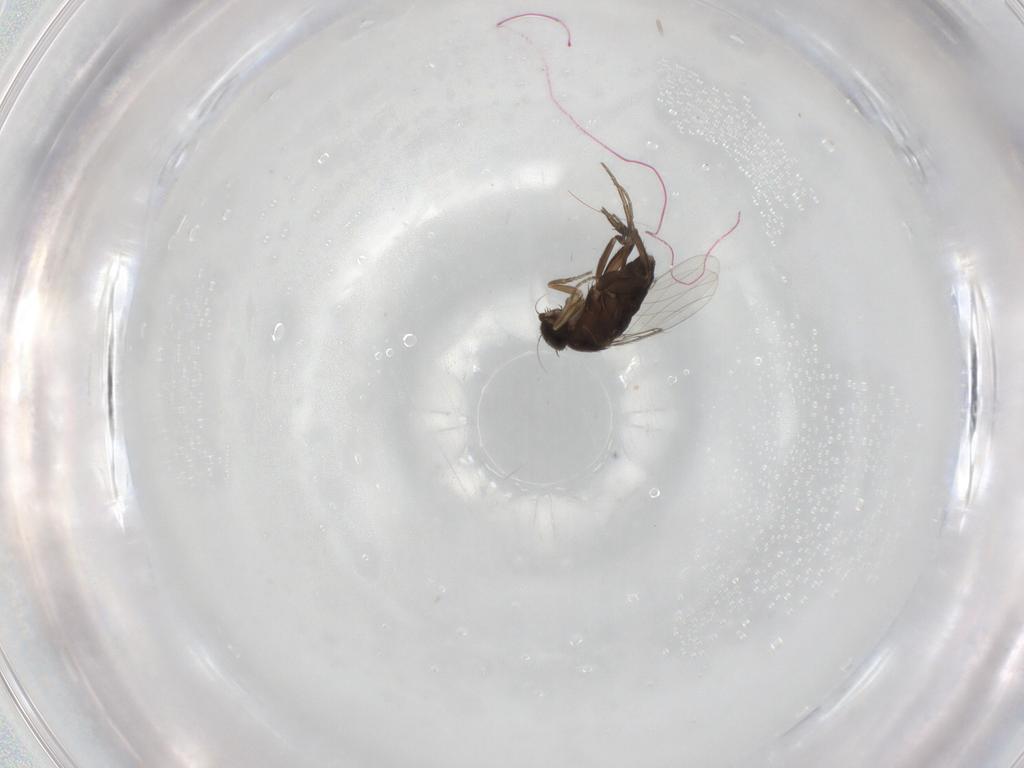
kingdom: Animalia
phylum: Arthropoda
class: Insecta
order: Diptera
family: Phoridae
